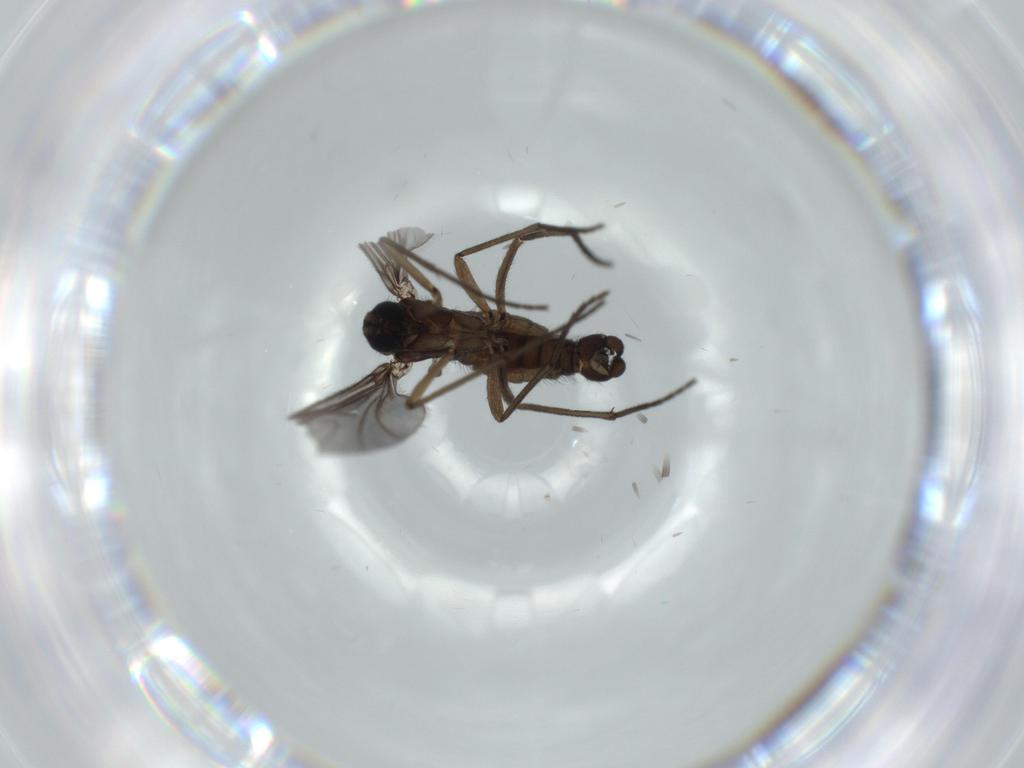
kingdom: Animalia
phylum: Arthropoda
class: Insecta
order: Diptera
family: Sciaridae
